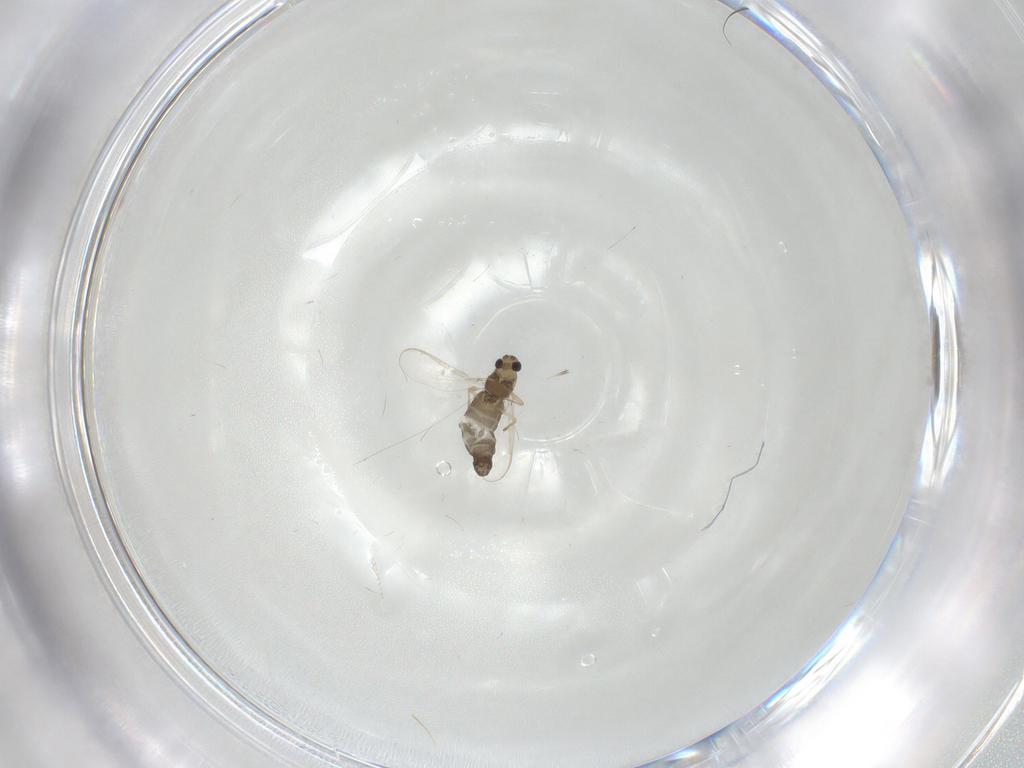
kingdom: Animalia
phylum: Arthropoda
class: Insecta
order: Diptera
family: Chironomidae
